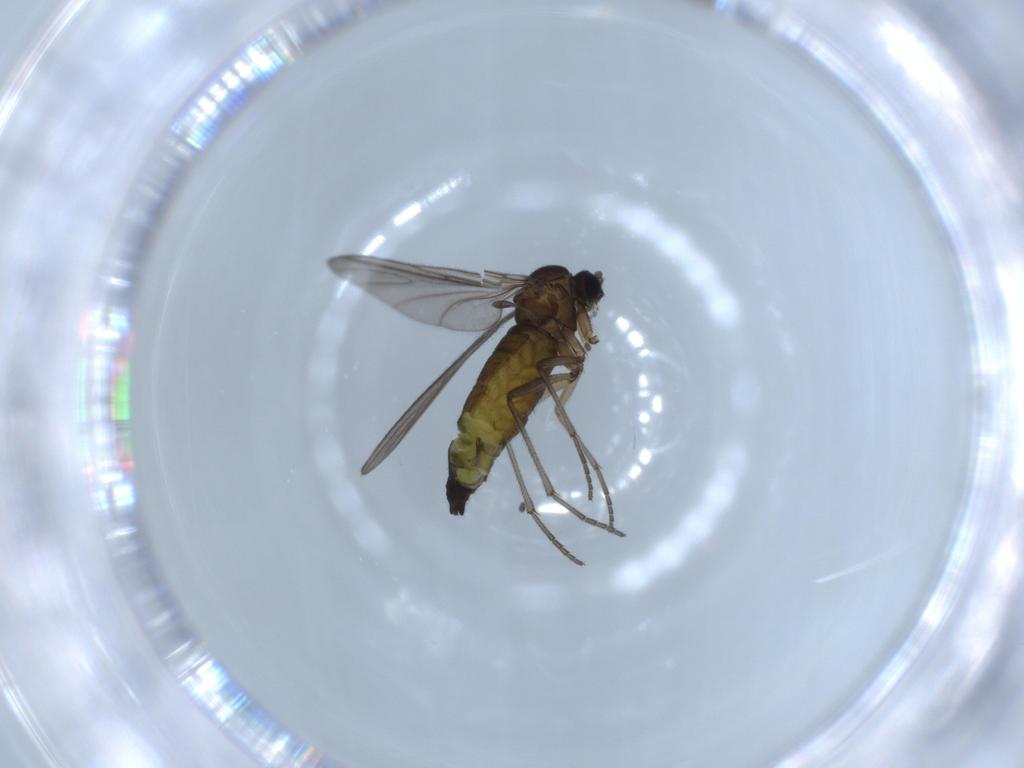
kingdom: Animalia
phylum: Arthropoda
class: Insecta
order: Diptera
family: Sciaridae
